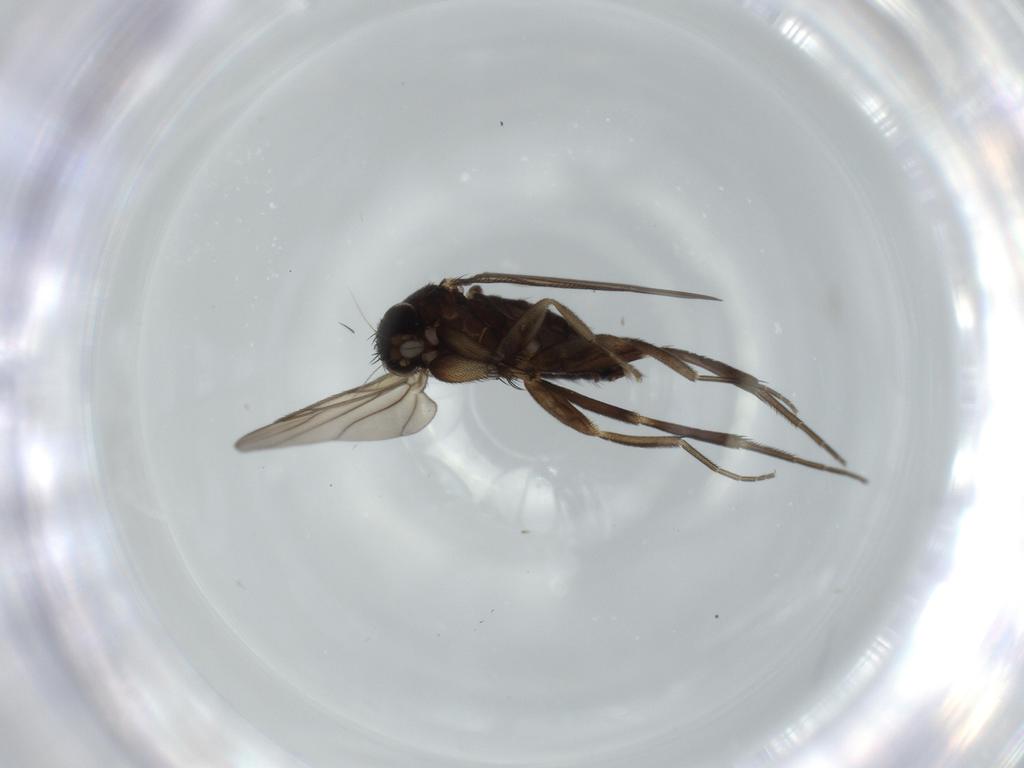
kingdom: Animalia
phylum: Arthropoda
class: Insecta
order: Diptera
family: Phoridae
